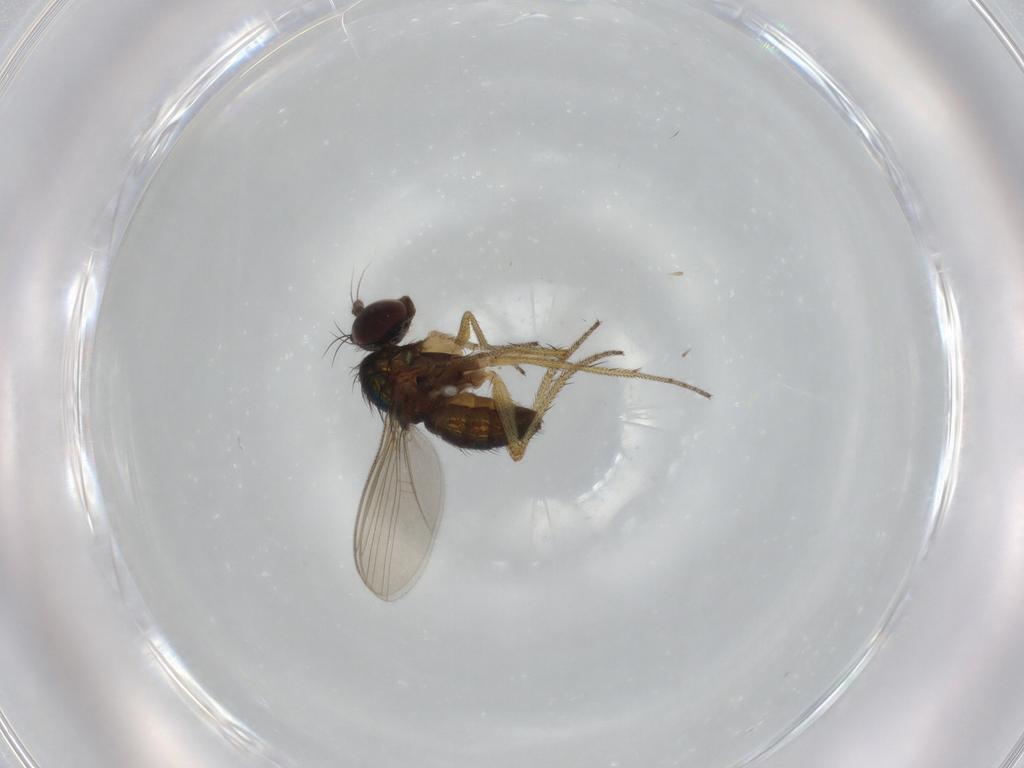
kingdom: Animalia
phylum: Arthropoda
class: Insecta
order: Diptera
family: Dolichopodidae
